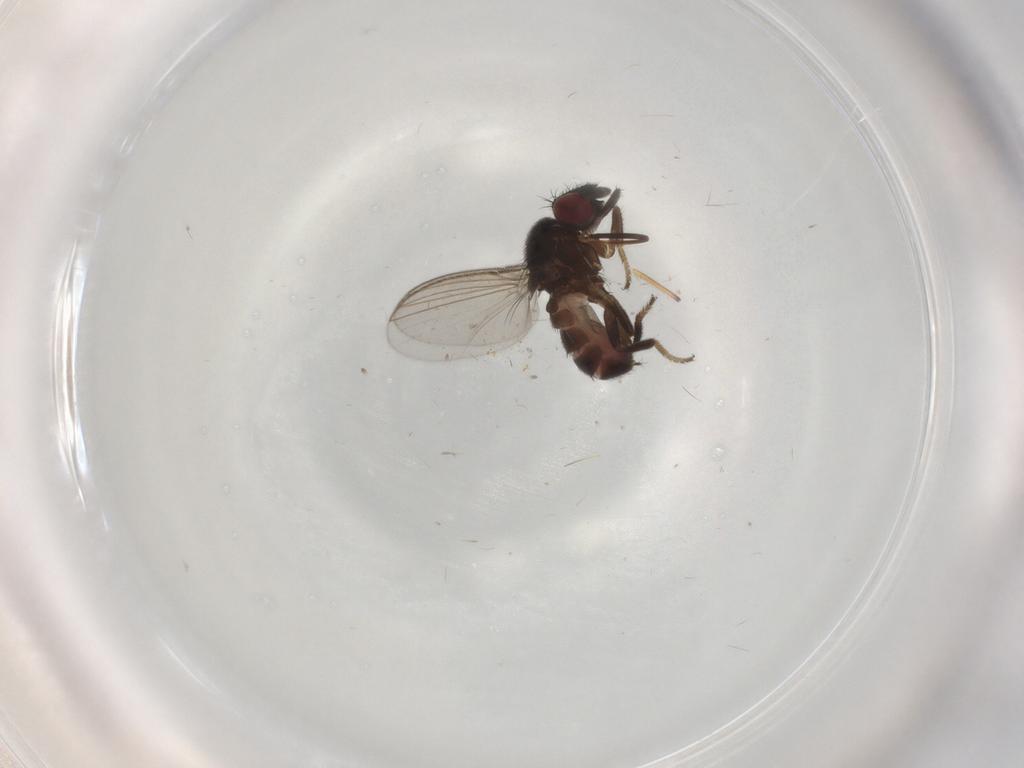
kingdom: Animalia
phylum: Arthropoda
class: Insecta
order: Diptera
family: Milichiidae
